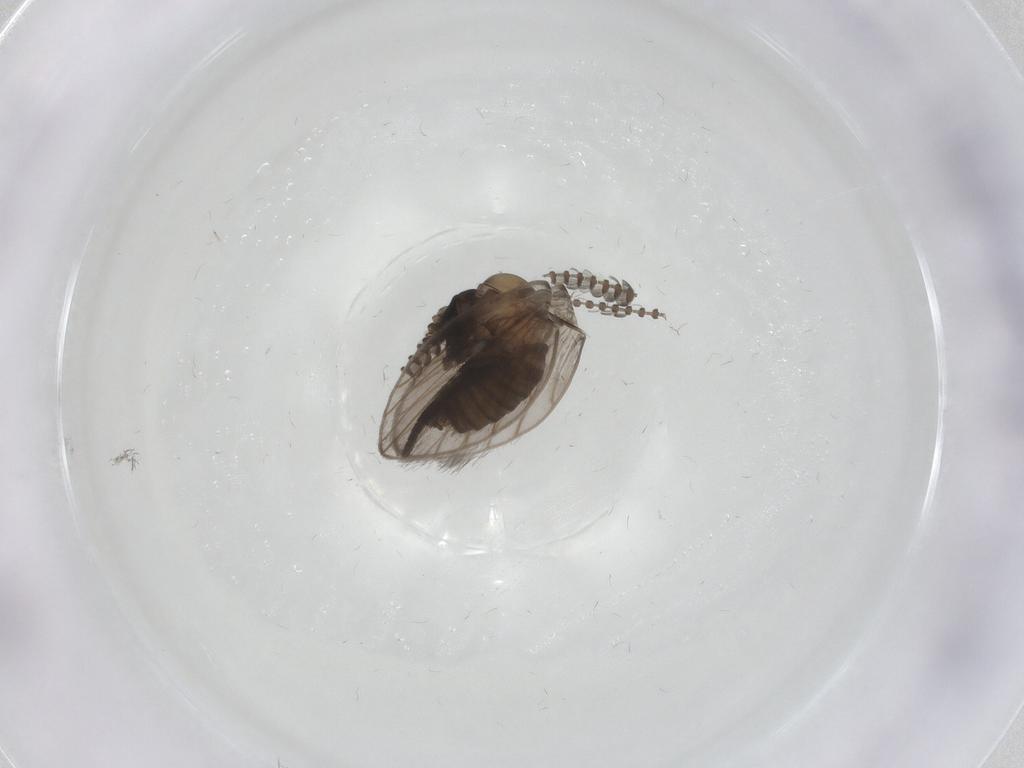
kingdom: Animalia
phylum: Arthropoda
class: Insecta
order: Diptera
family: Psychodidae
